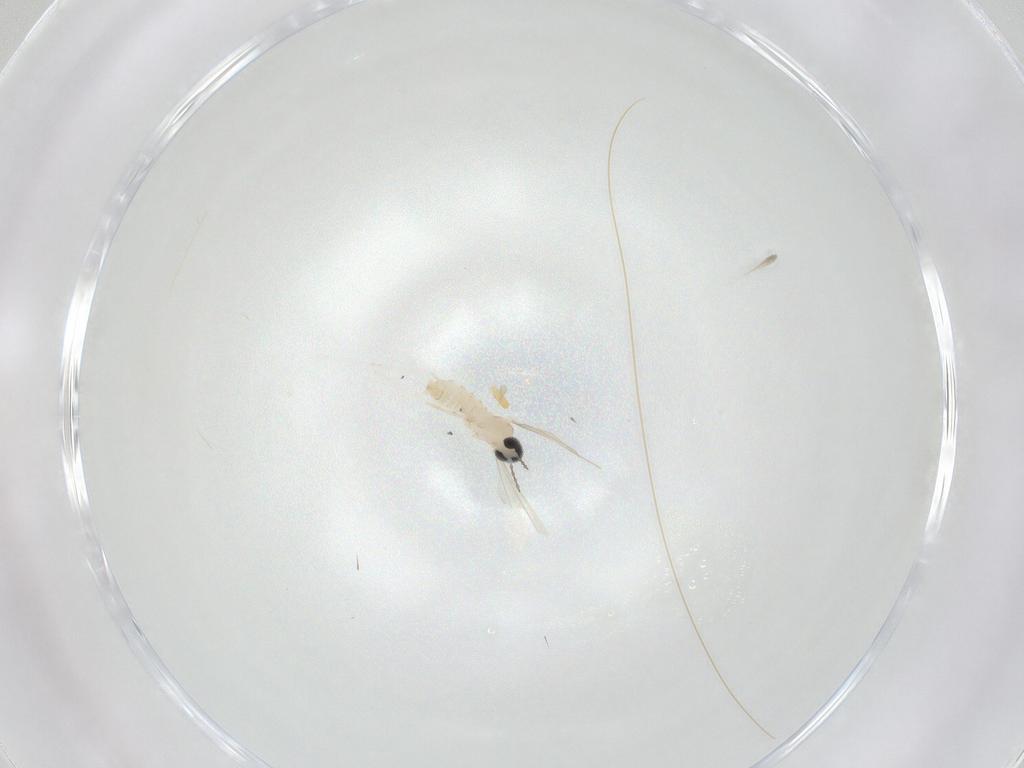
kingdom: Animalia
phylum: Arthropoda
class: Insecta
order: Diptera
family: Cecidomyiidae
